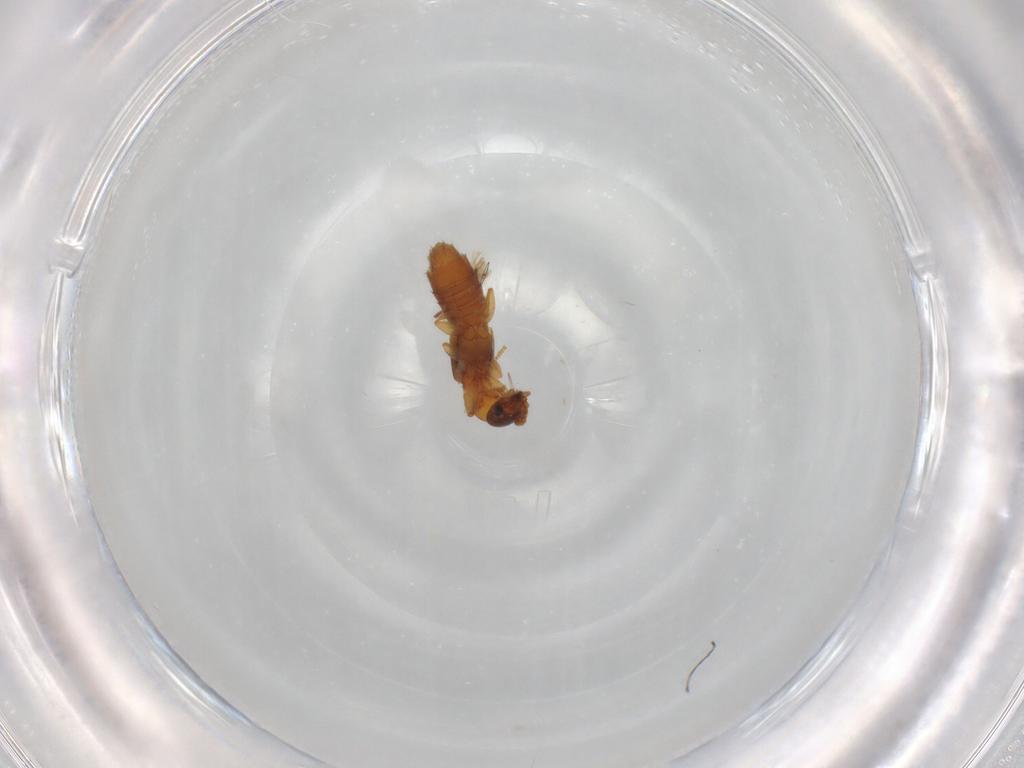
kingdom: Animalia
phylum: Arthropoda
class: Insecta
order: Coleoptera
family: Staphylinidae
